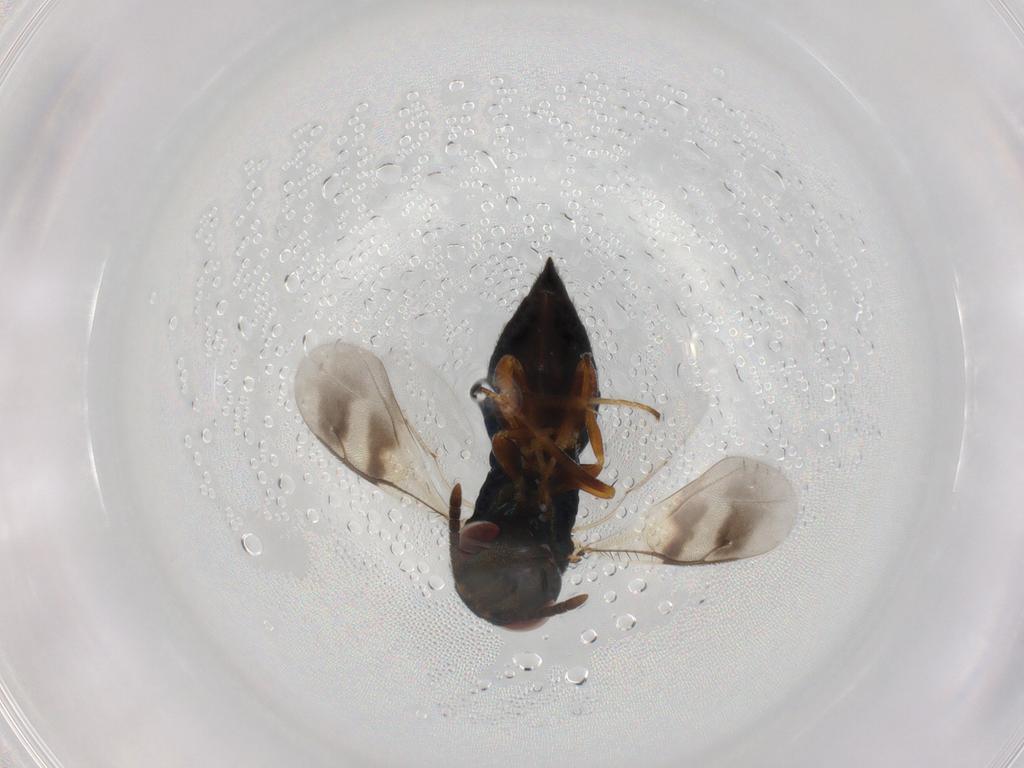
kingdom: Animalia
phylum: Arthropoda
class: Insecta
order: Hymenoptera
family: Pteromalidae
